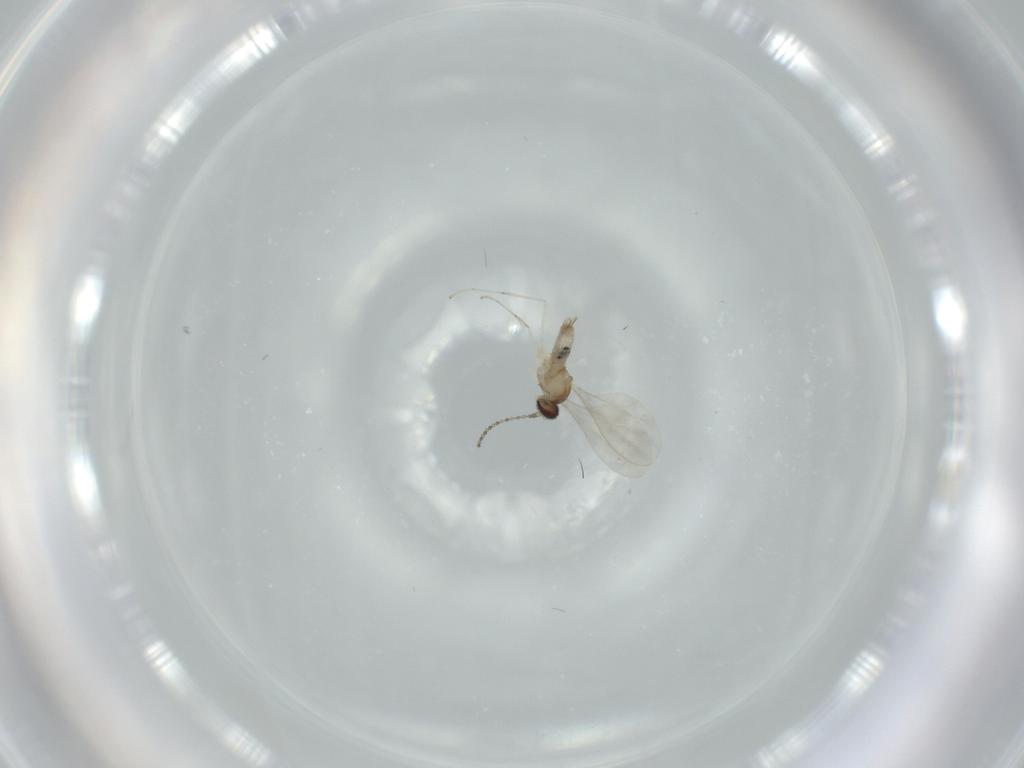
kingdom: Animalia
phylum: Arthropoda
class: Insecta
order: Diptera
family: Cecidomyiidae
